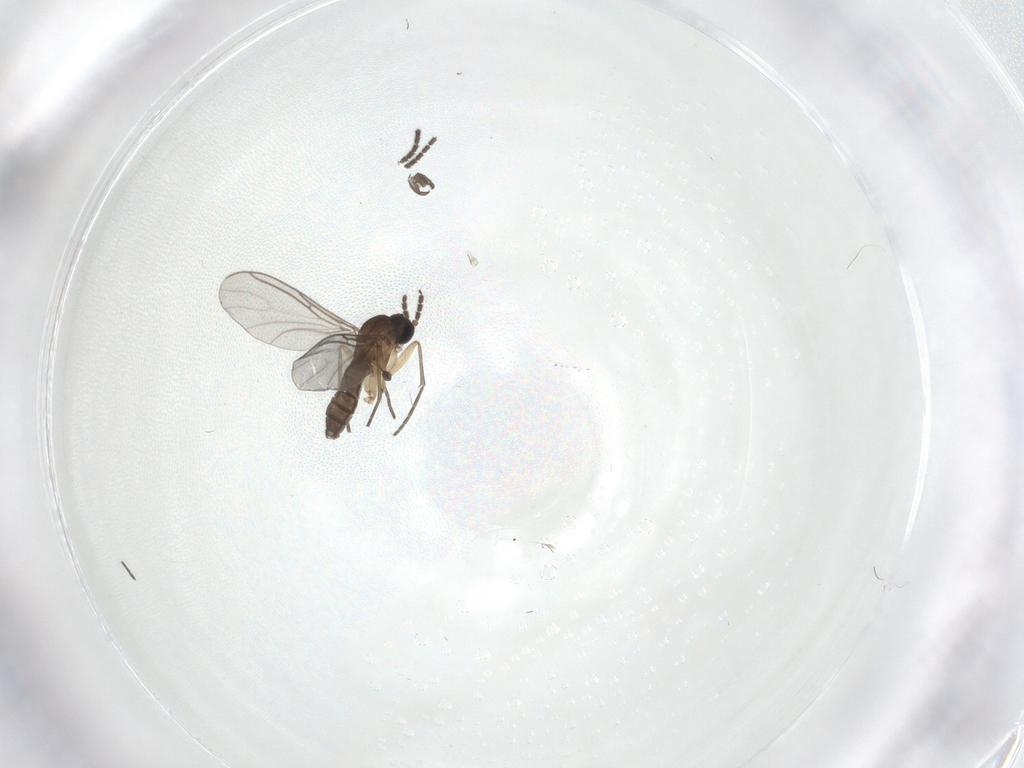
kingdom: Animalia
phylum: Arthropoda
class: Insecta
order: Diptera
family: Sciaridae
